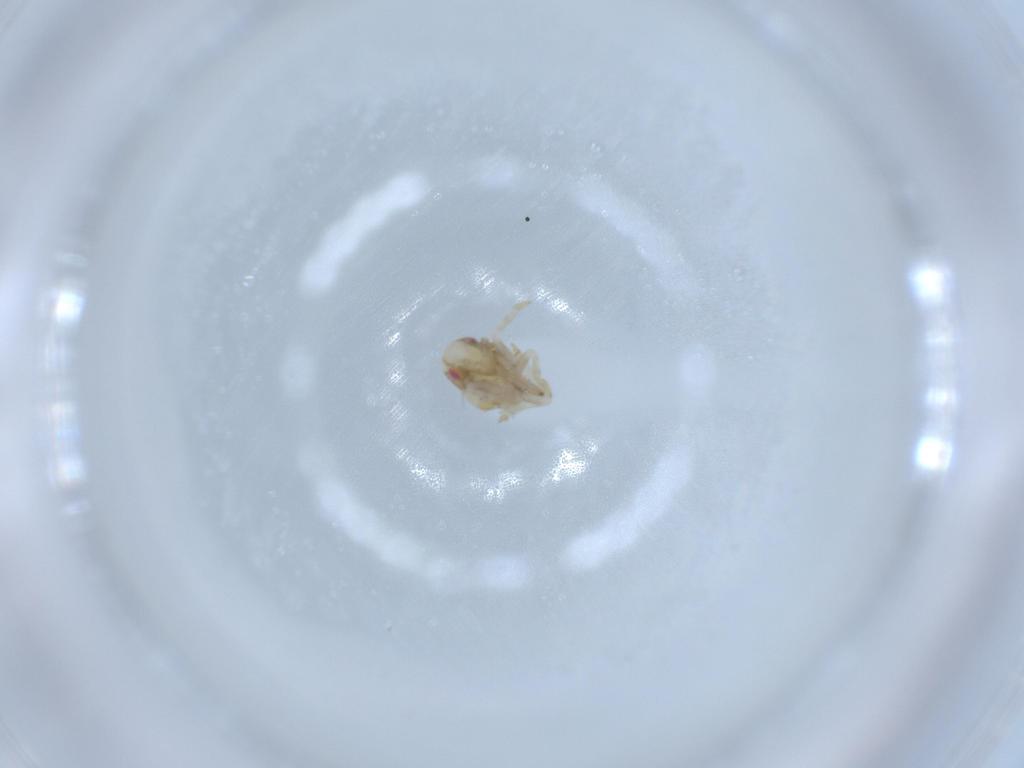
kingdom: Animalia
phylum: Arthropoda
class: Insecta
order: Hemiptera
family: Acanaloniidae
